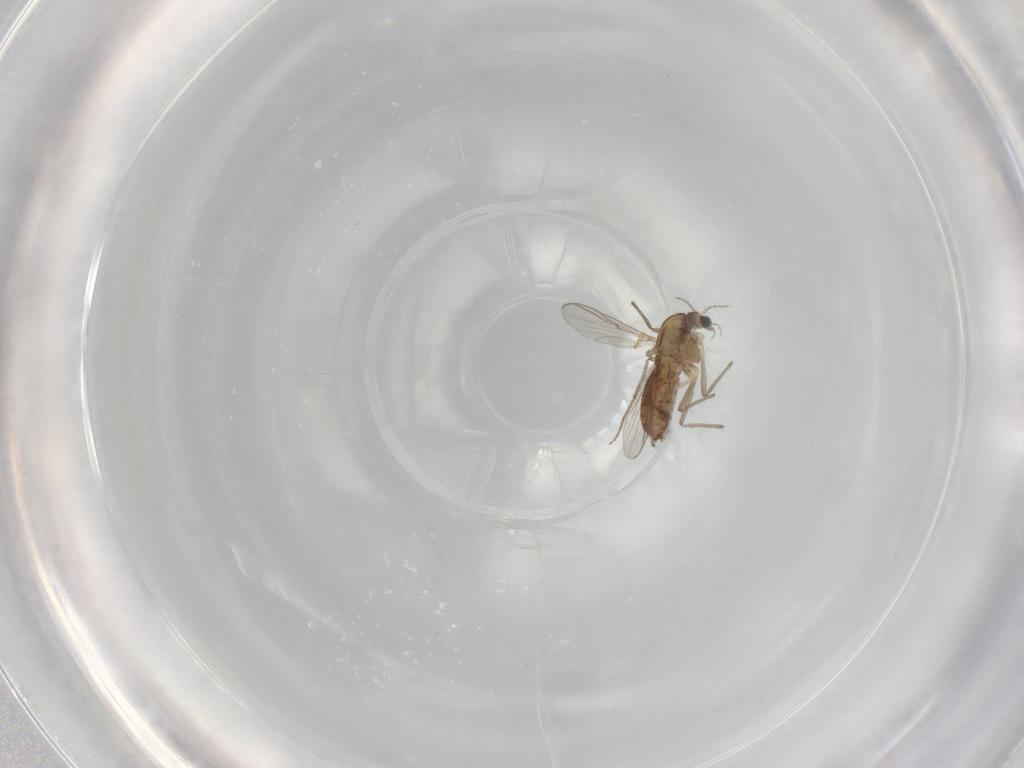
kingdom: Animalia
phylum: Arthropoda
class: Insecta
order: Diptera
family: Chironomidae
